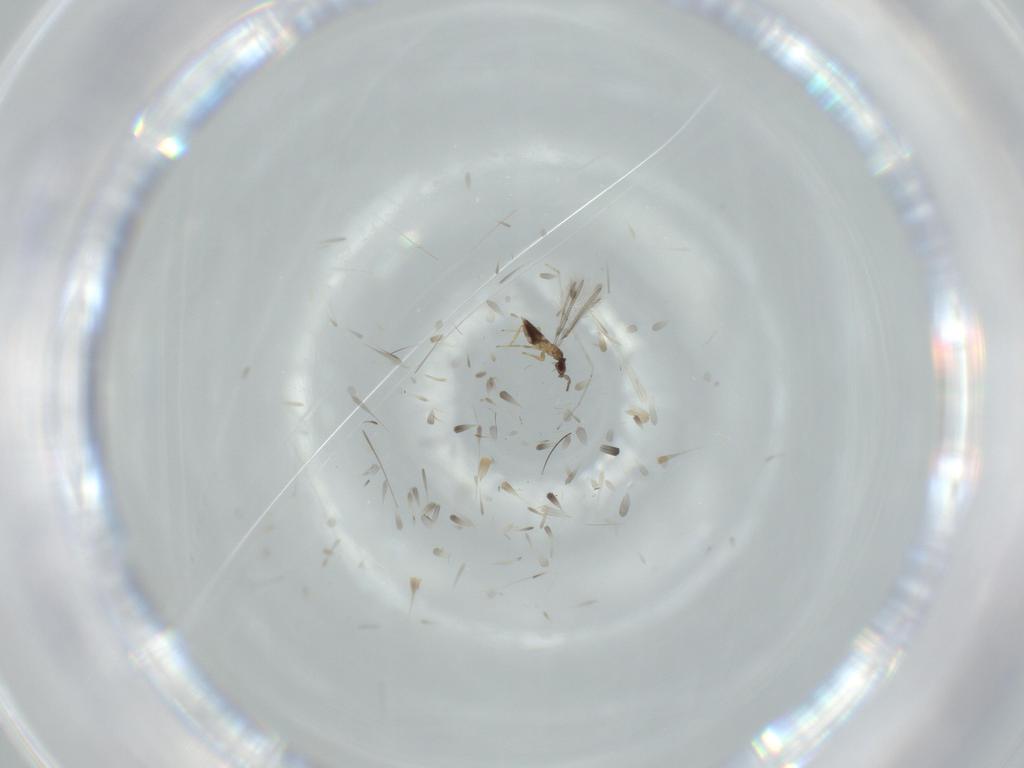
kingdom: Animalia
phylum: Arthropoda
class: Insecta
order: Hymenoptera
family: Mymaridae
